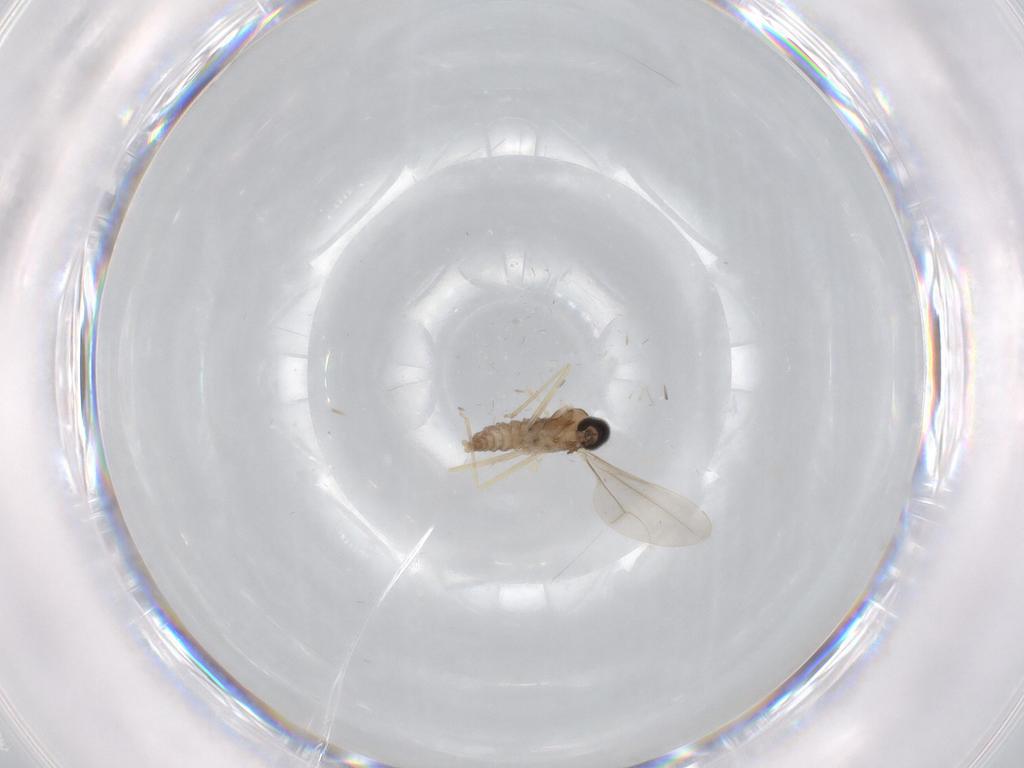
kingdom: Animalia
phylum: Arthropoda
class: Insecta
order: Diptera
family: Cecidomyiidae
